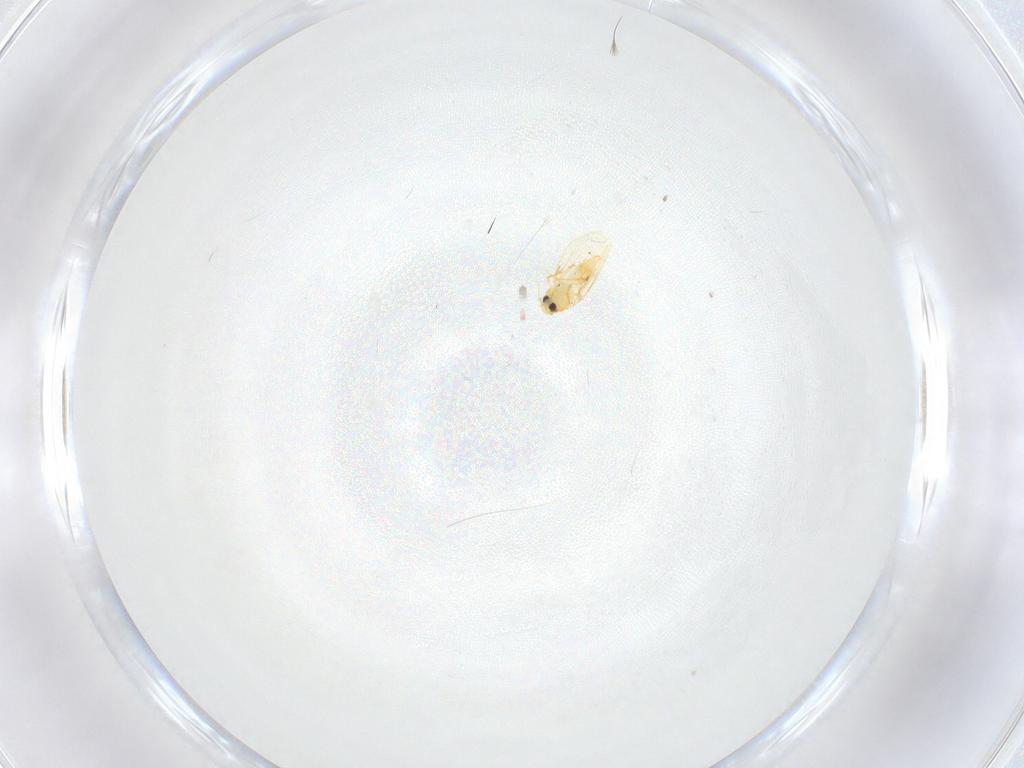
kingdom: Animalia
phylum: Arthropoda
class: Insecta
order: Hemiptera
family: Aleyrodidae
